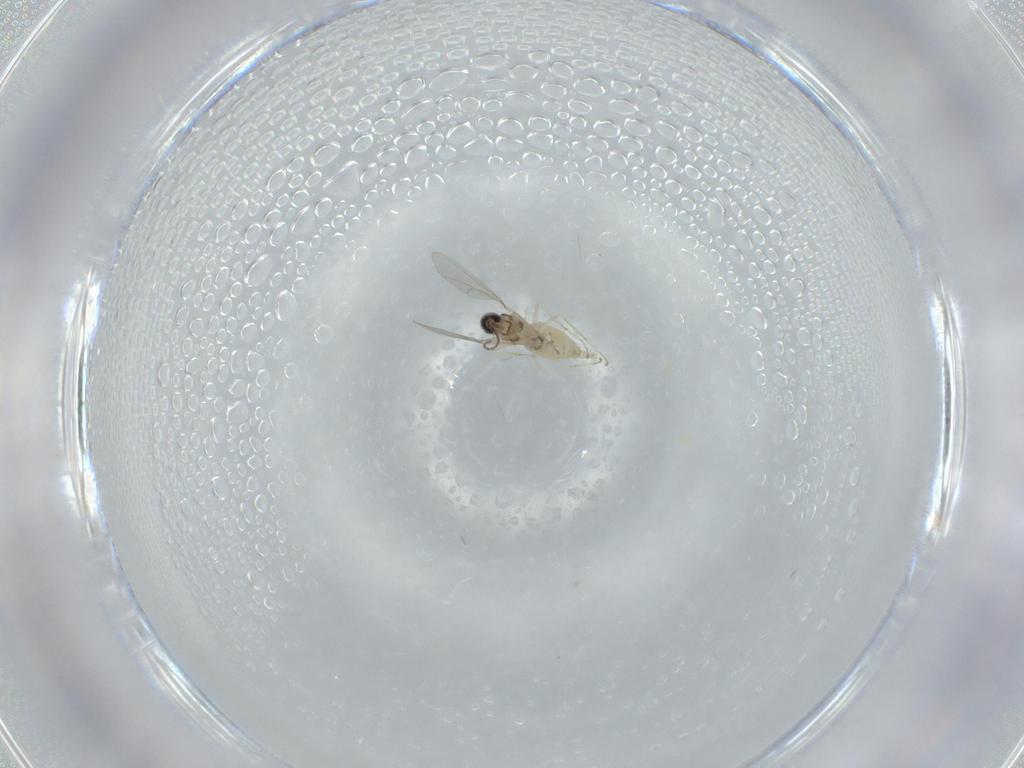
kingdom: Animalia
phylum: Arthropoda
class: Insecta
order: Diptera
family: Cecidomyiidae
